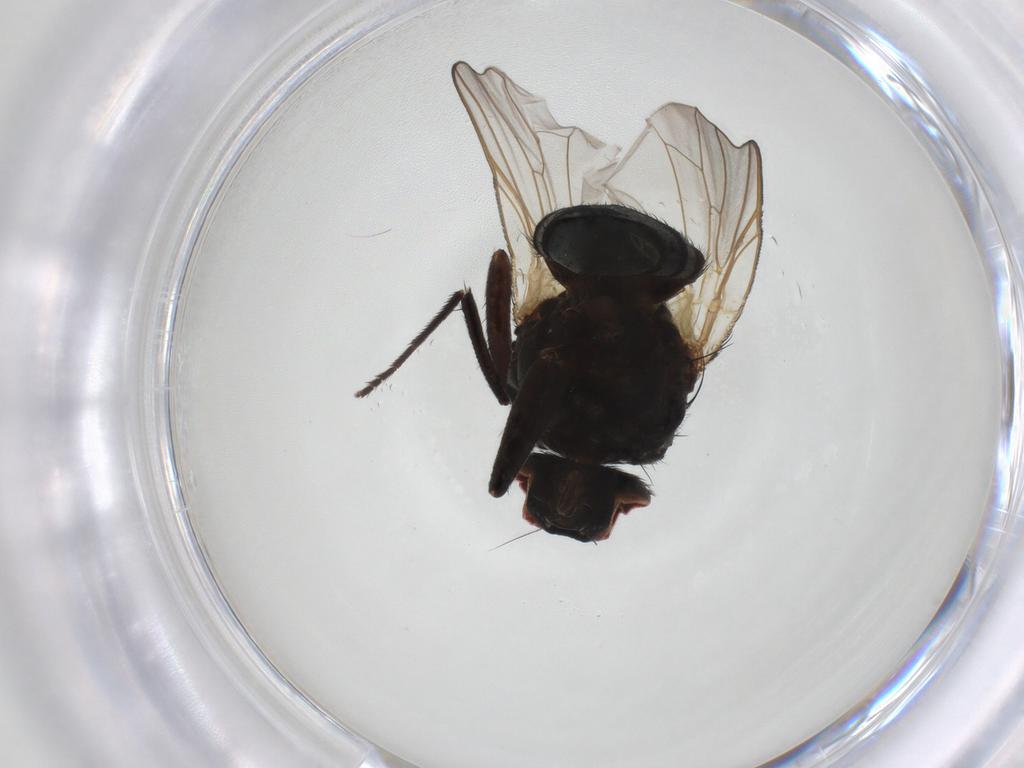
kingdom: Animalia
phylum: Arthropoda
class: Insecta
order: Diptera
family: Muscidae
